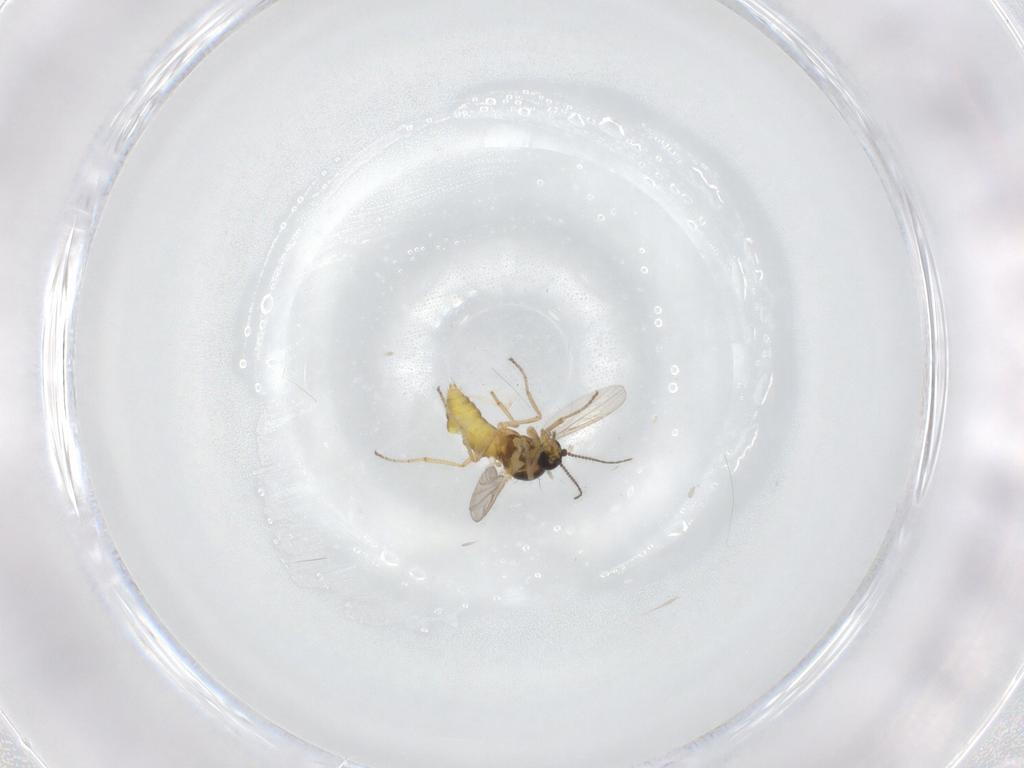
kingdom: Animalia
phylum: Arthropoda
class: Insecta
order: Diptera
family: Ceratopogonidae
